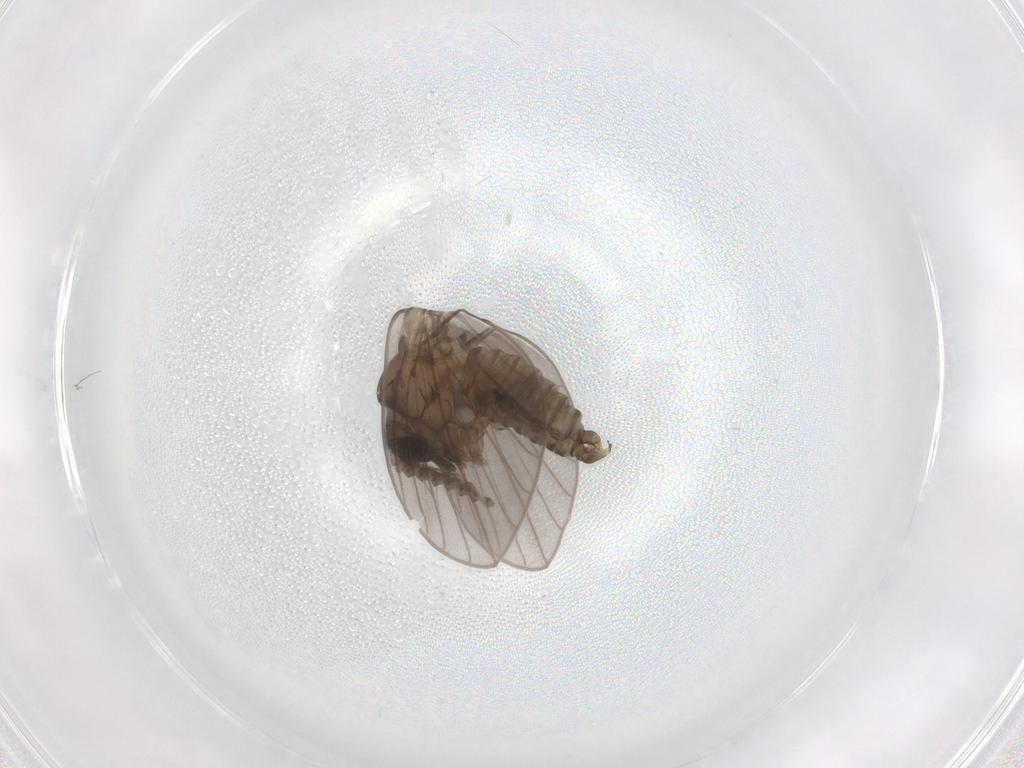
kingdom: Animalia
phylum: Arthropoda
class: Insecta
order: Diptera
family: Psychodidae
